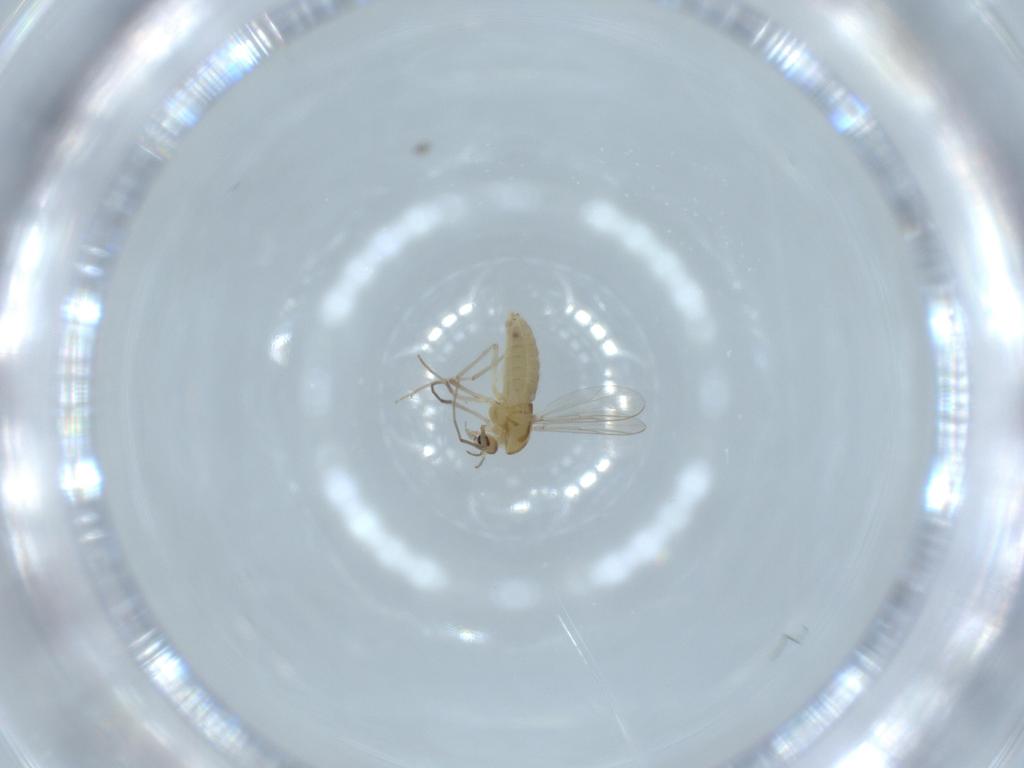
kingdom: Animalia
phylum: Arthropoda
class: Insecta
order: Diptera
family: Chironomidae
